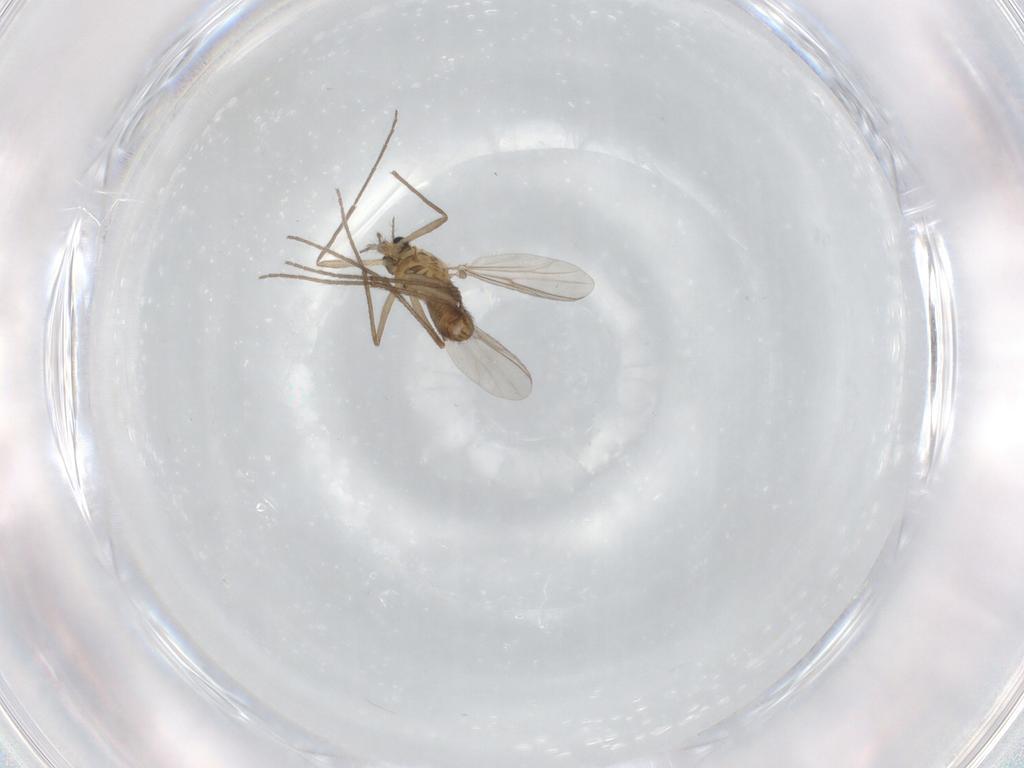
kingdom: Animalia
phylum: Arthropoda
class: Insecta
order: Diptera
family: Chironomidae
